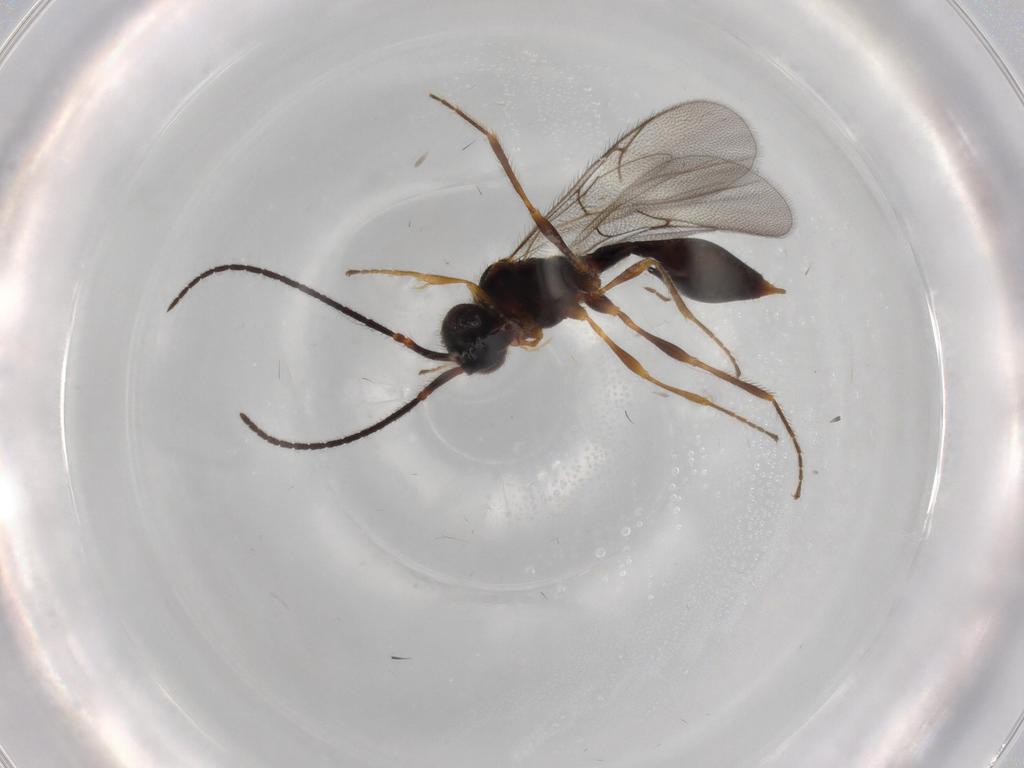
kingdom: Animalia
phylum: Arthropoda
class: Insecta
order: Hymenoptera
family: Diapriidae
